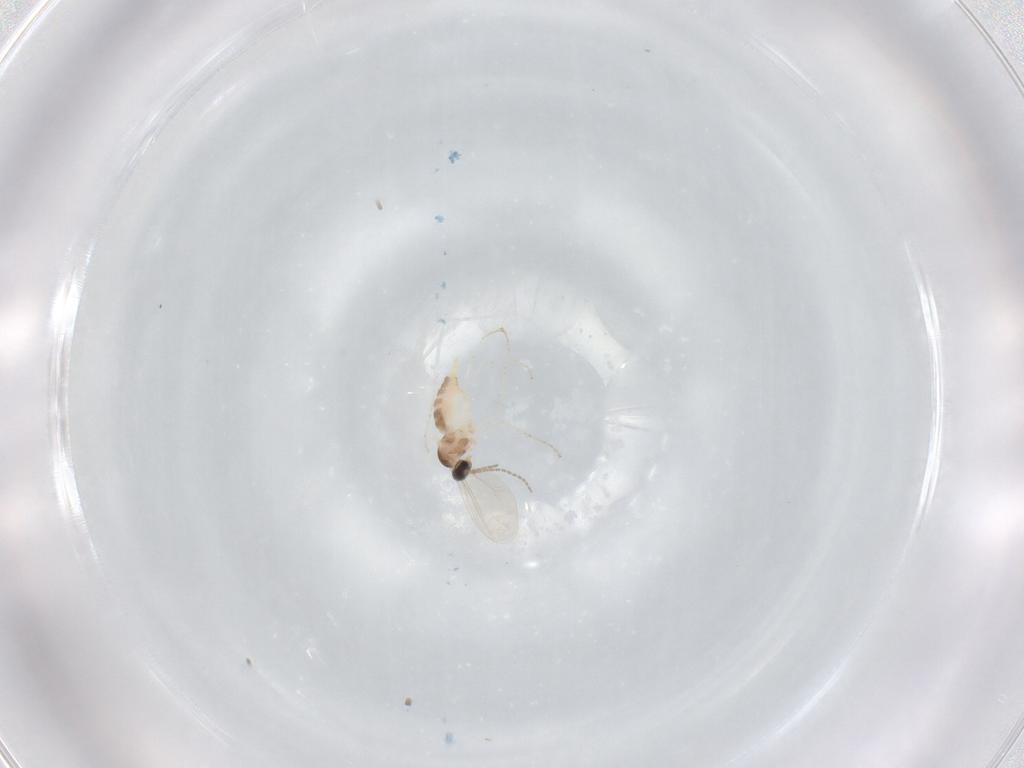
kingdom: Animalia
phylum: Arthropoda
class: Insecta
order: Diptera
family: Cecidomyiidae
